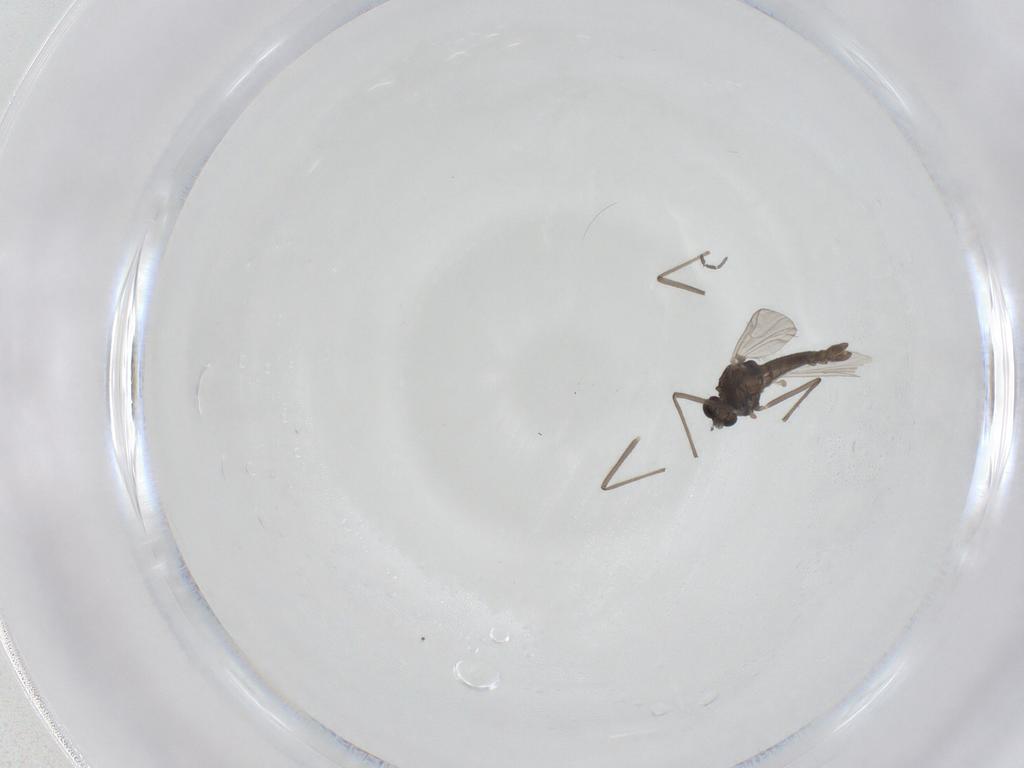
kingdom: Animalia
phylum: Arthropoda
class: Insecta
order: Diptera
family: Chironomidae
